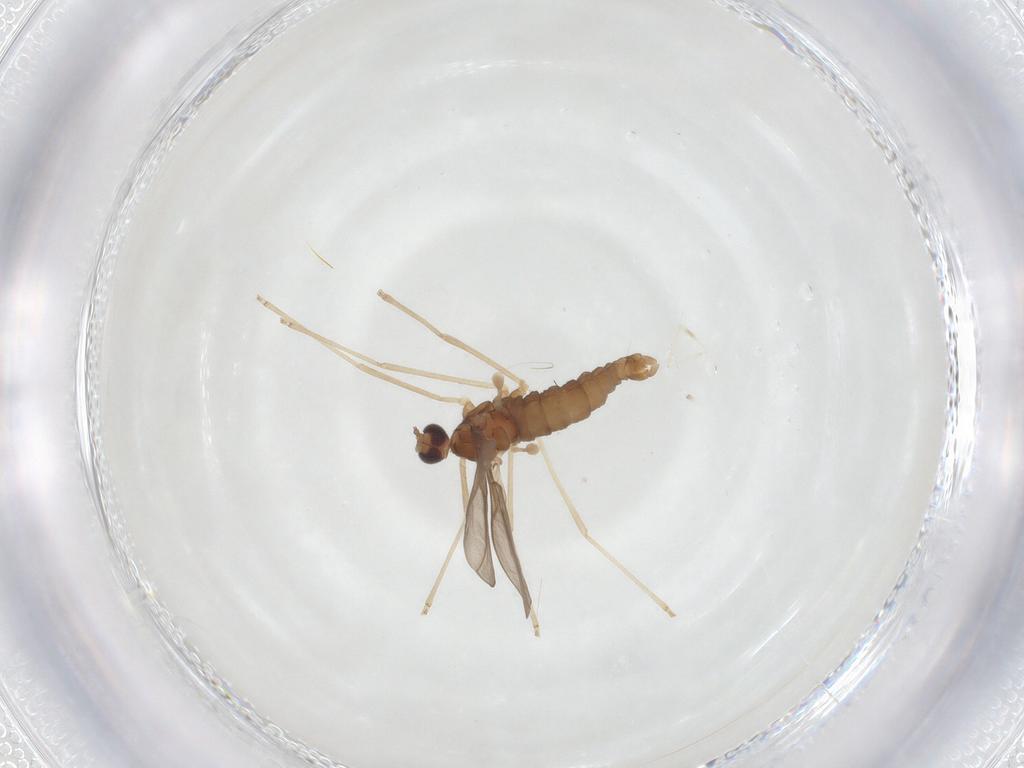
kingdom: Animalia
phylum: Arthropoda
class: Insecta
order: Diptera
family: Cecidomyiidae
